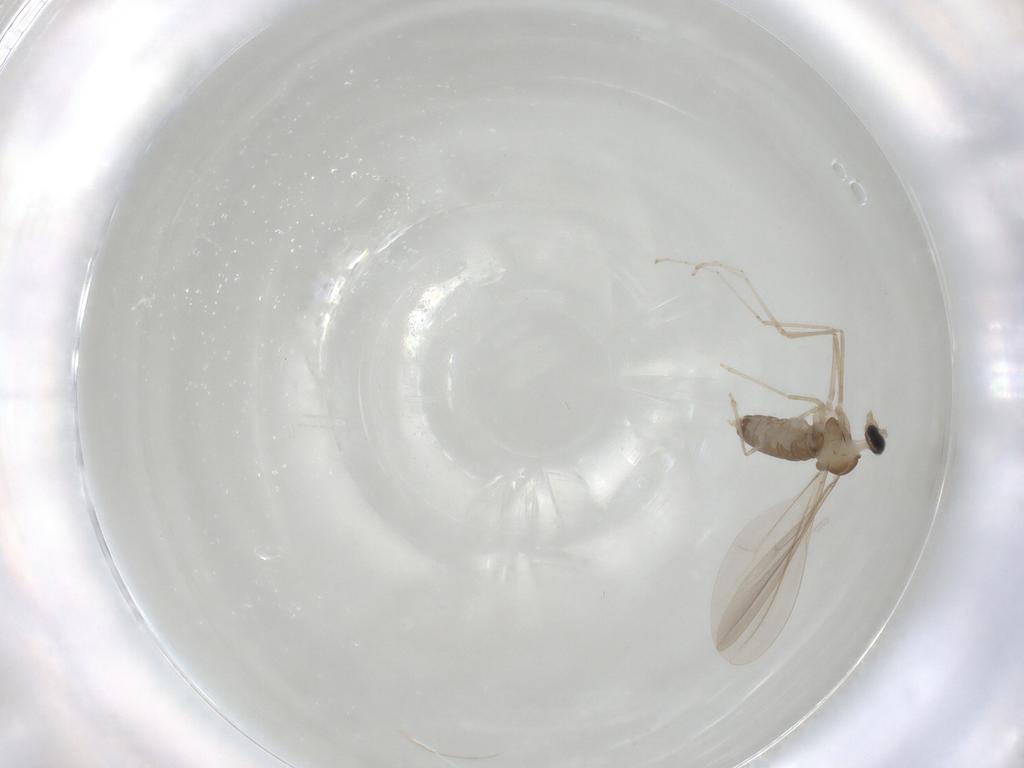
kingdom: Animalia
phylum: Arthropoda
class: Insecta
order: Diptera
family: Cecidomyiidae
